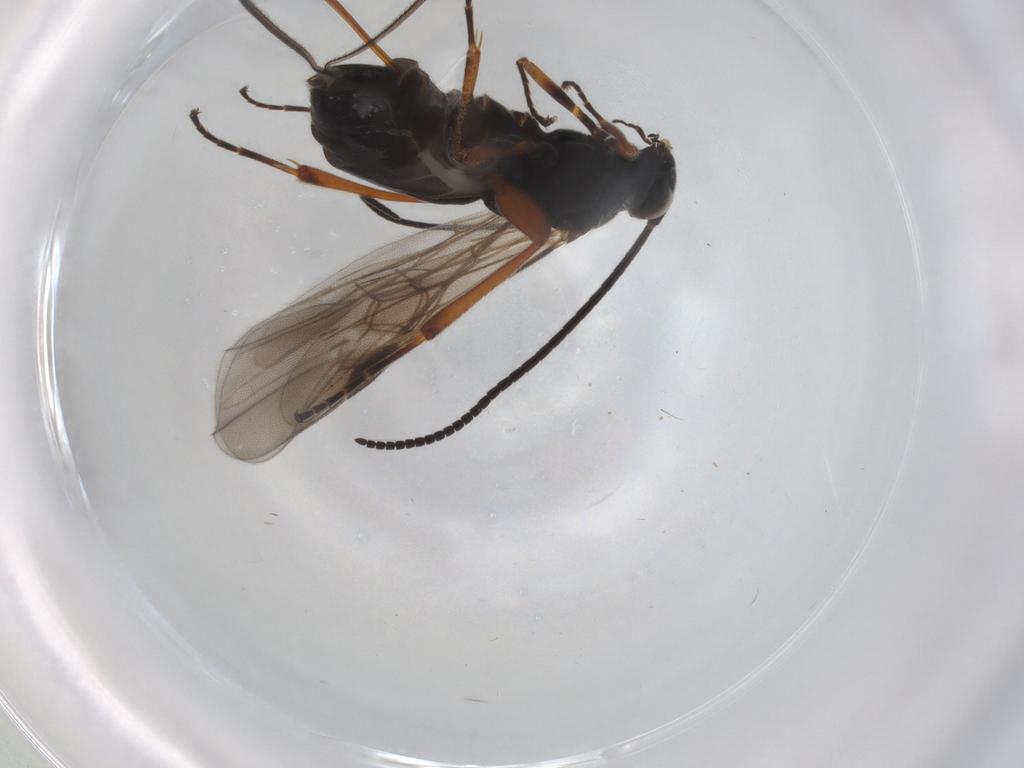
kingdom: Animalia
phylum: Arthropoda
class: Insecta
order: Hymenoptera
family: Braconidae
